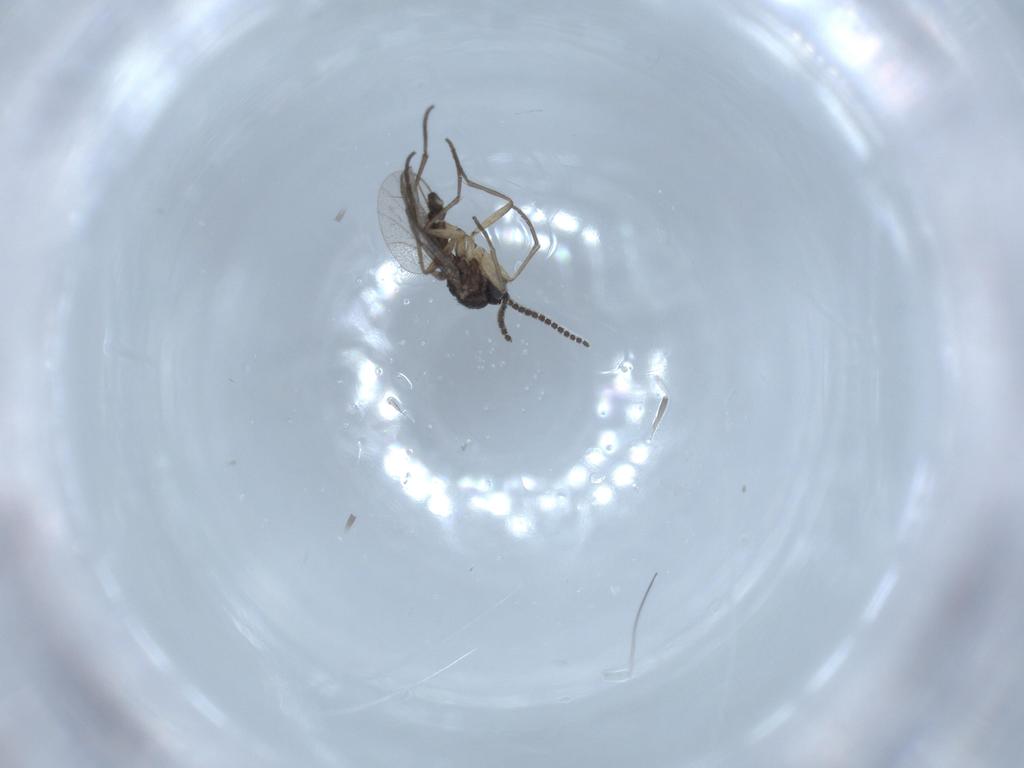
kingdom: Animalia
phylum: Arthropoda
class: Insecta
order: Diptera
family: Sciaridae
